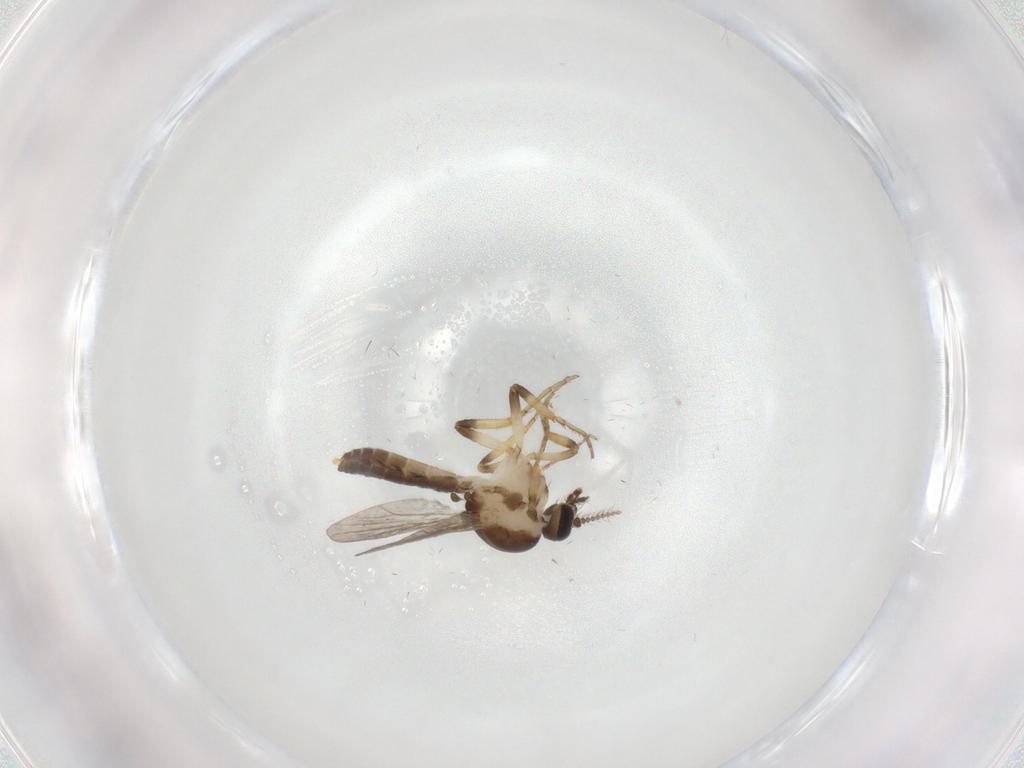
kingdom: Animalia
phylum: Arthropoda
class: Insecta
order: Diptera
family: Ceratopogonidae
